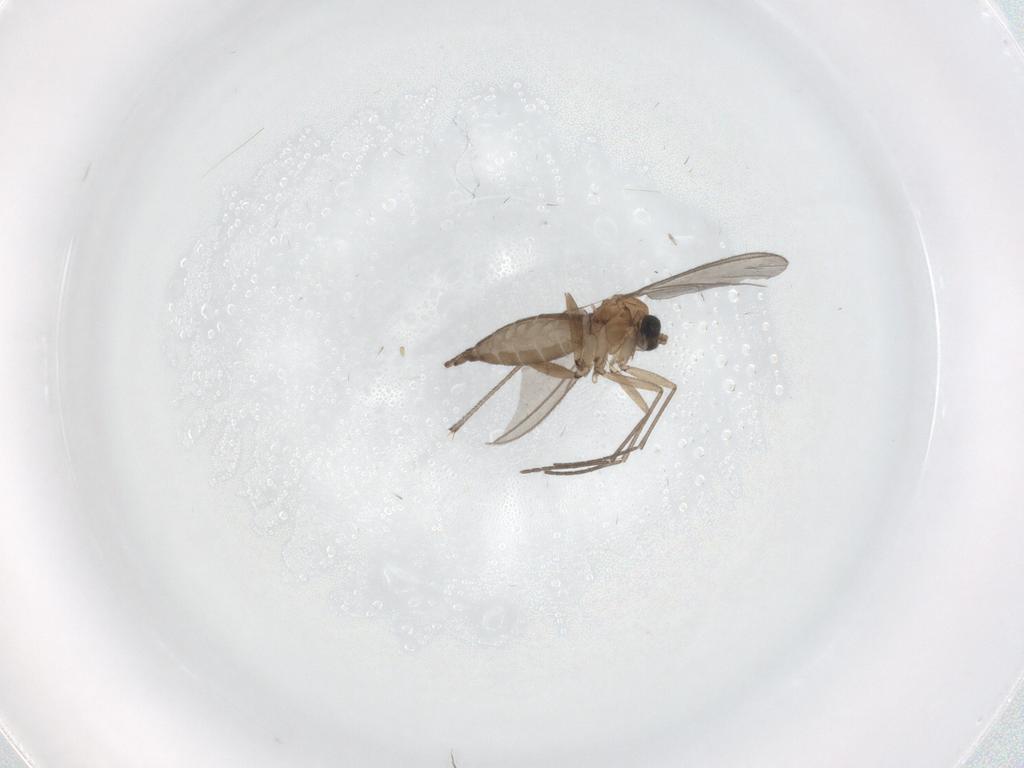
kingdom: Animalia
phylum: Arthropoda
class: Insecta
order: Diptera
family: Sciaridae
